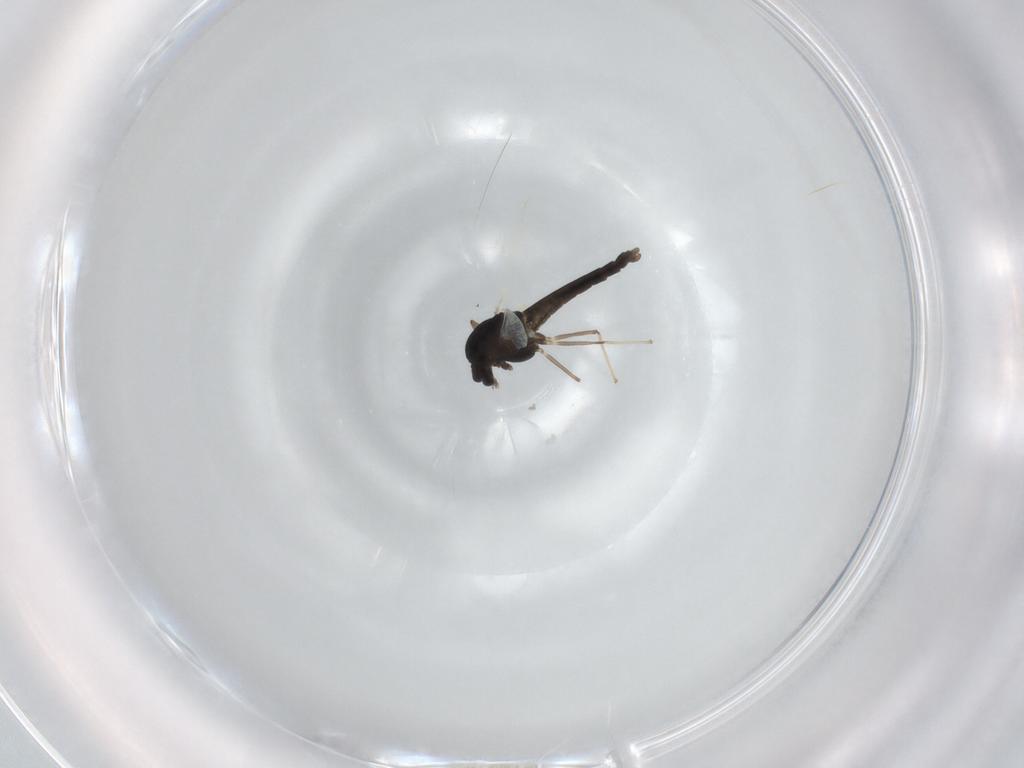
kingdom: Animalia
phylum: Arthropoda
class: Insecta
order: Diptera
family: Chironomidae
